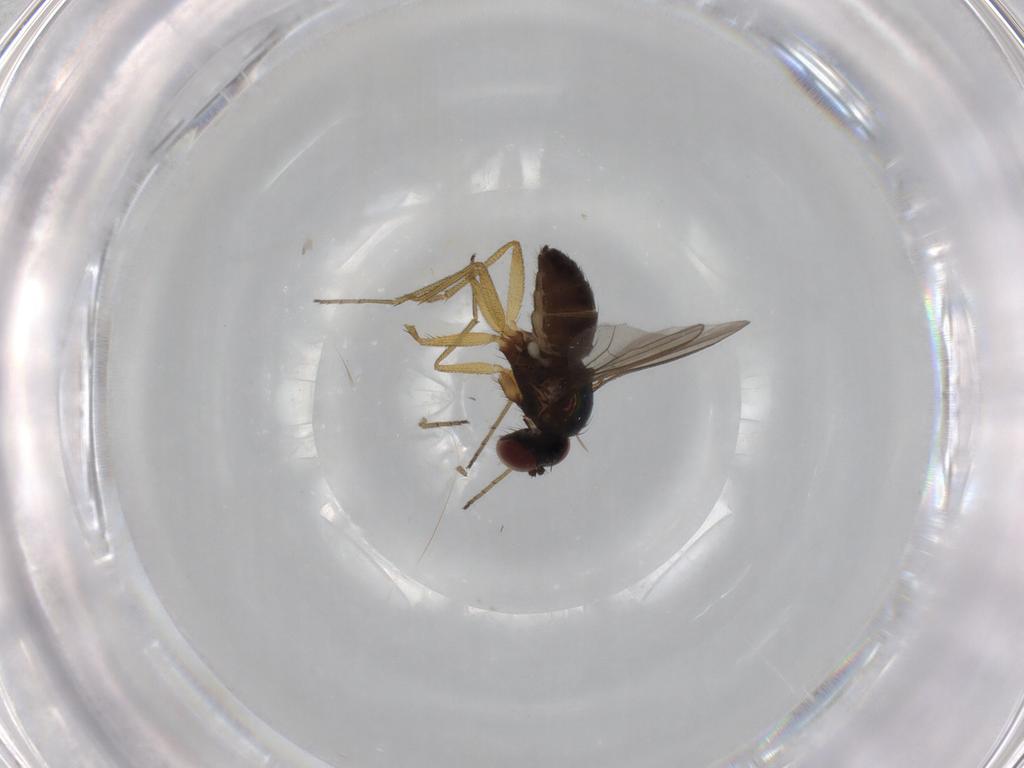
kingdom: Animalia
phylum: Arthropoda
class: Insecta
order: Diptera
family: Dolichopodidae
